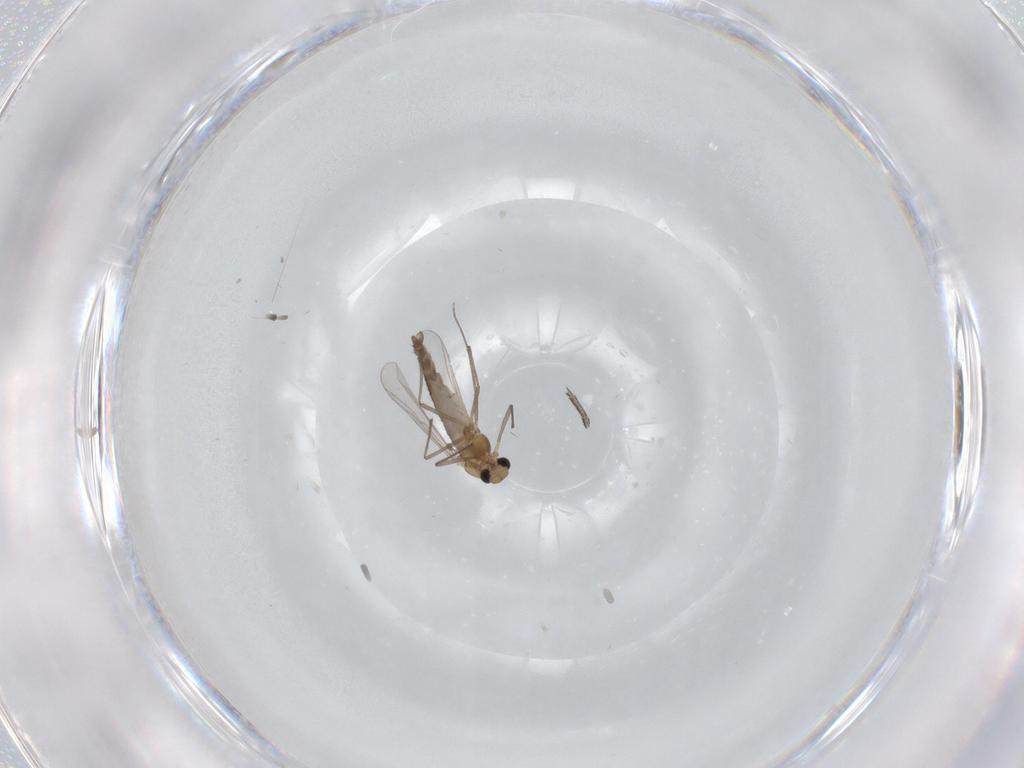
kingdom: Animalia
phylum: Arthropoda
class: Insecta
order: Diptera
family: Chironomidae
